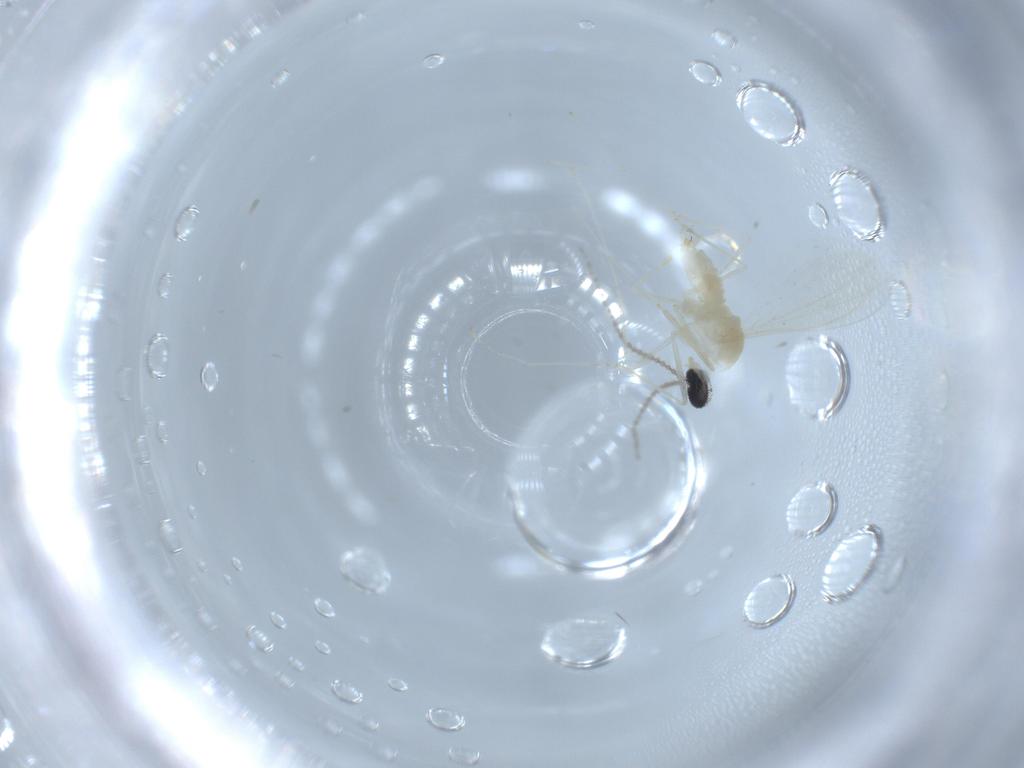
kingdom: Animalia
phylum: Arthropoda
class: Insecta
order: Diptera
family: Cecidomyiidae
